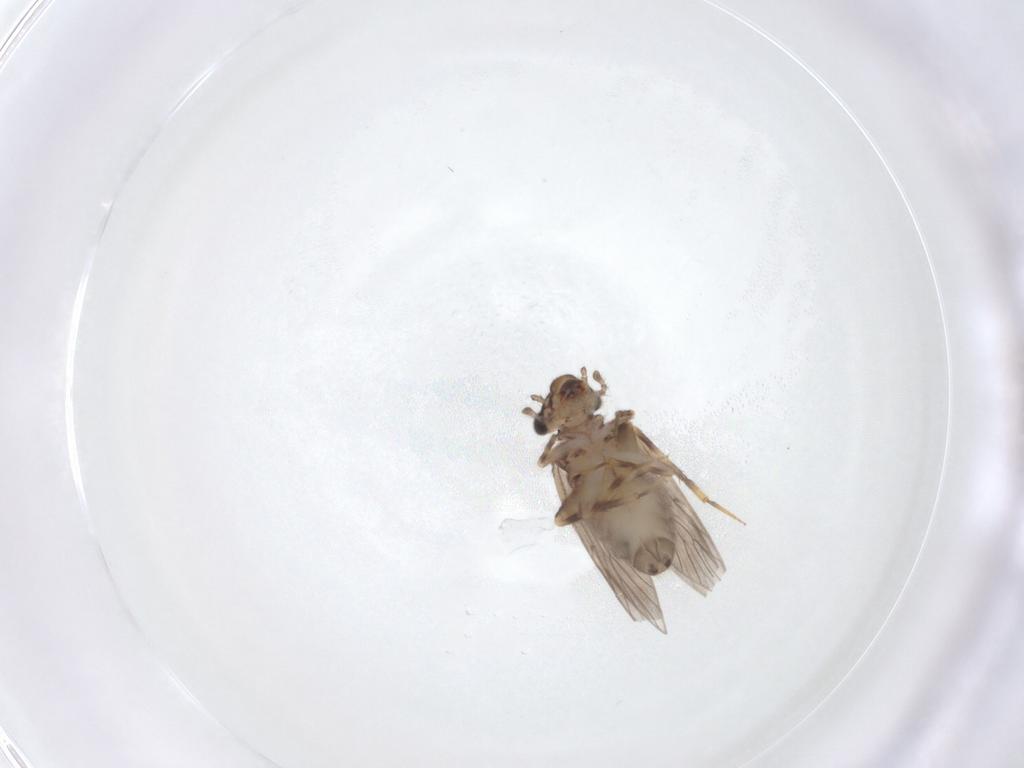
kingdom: Animalia
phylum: Arthropoda
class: Insecta
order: Psocodea
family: Lepidopsocidae
